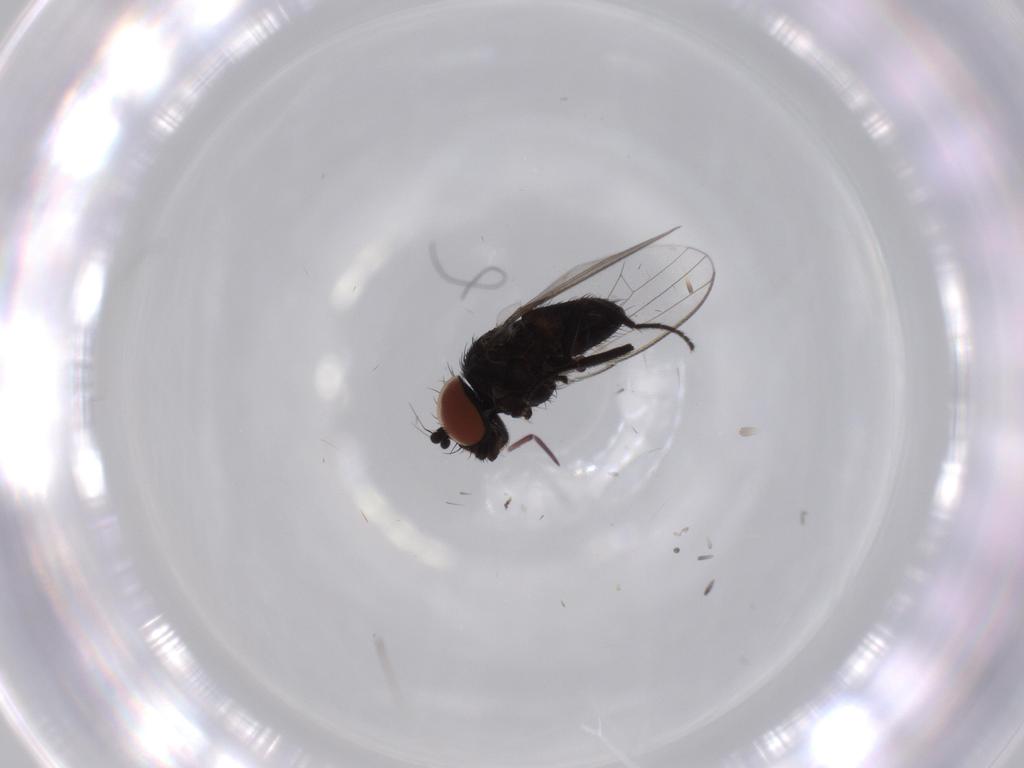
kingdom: Animalia
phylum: Arthropoda
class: Insecta
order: Diptera
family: Milichiidae
